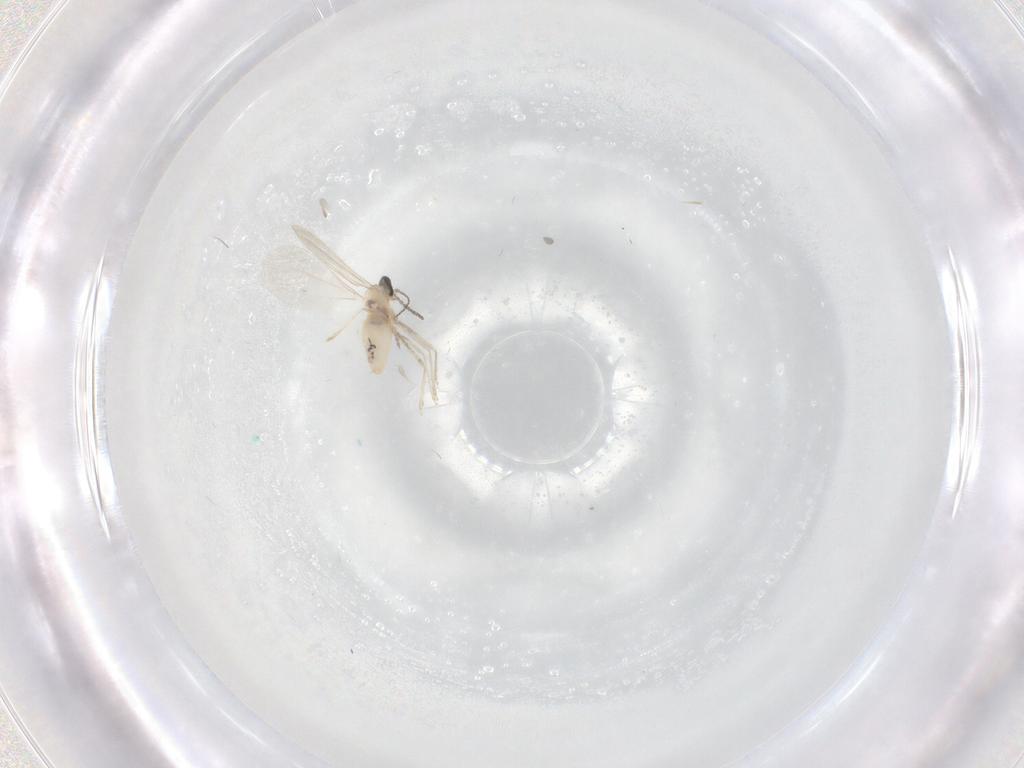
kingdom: Animalia
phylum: Arthropoda
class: Insecta
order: Diptera
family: Cecidomyiidae
